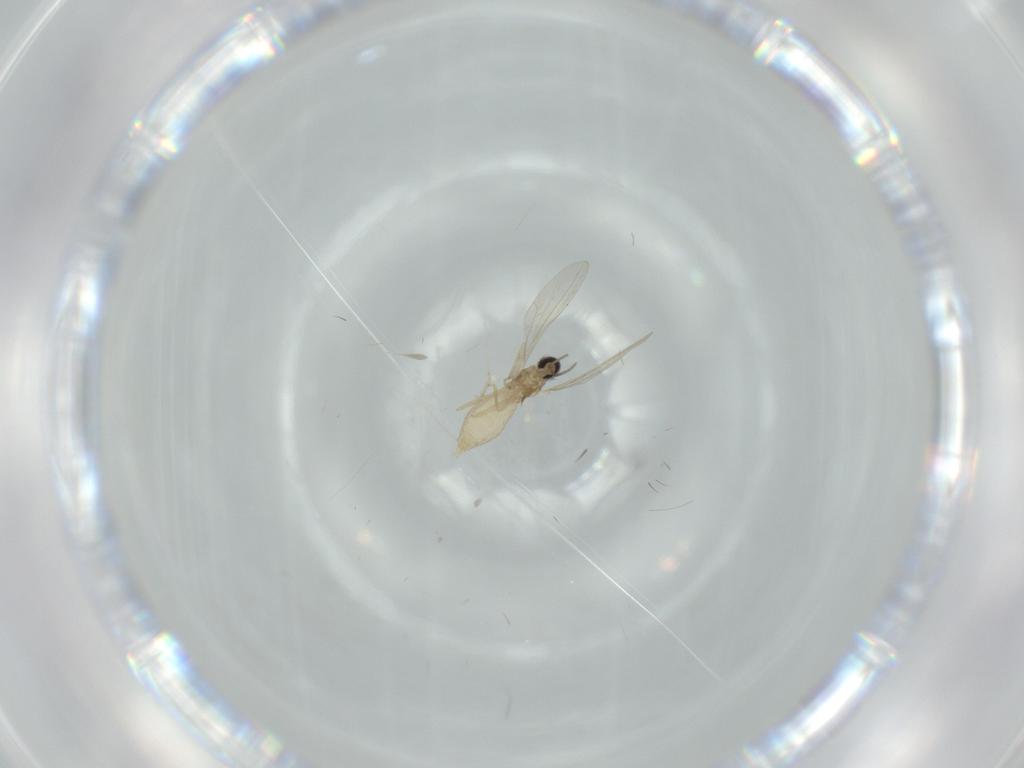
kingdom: Animalia
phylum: Arthropoda
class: Insecta
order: Diptera
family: Cecidomyiidae
